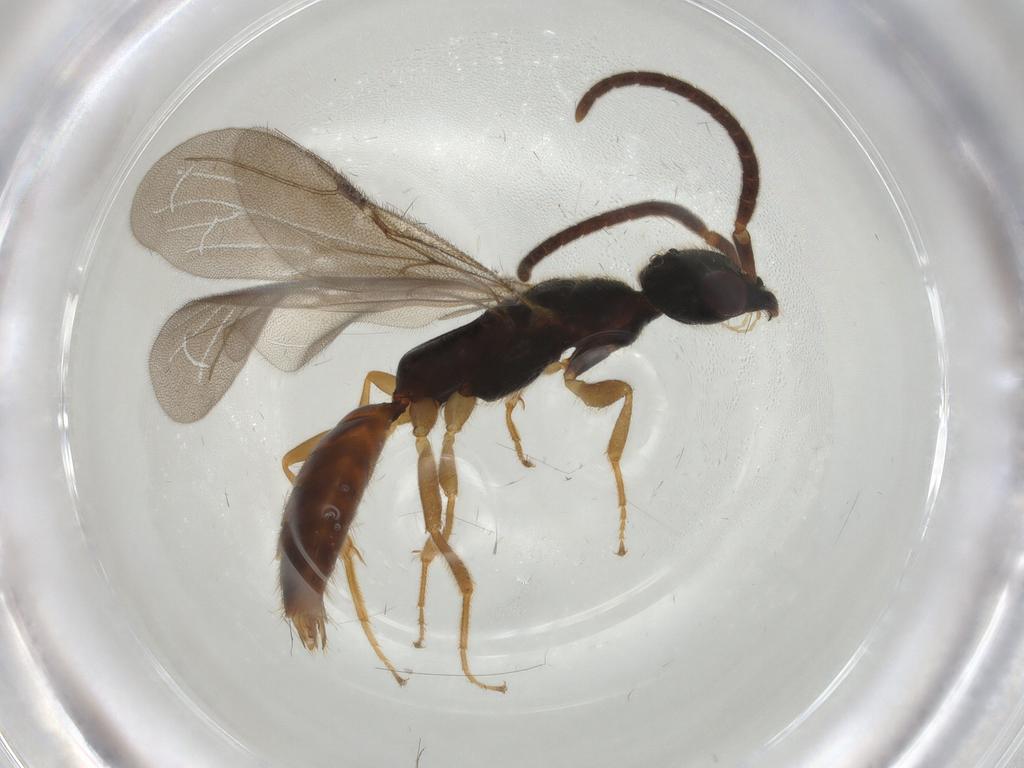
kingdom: Animalia
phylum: Arthropoda
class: Insecta
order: Hymenoptera
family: Bethylidae
